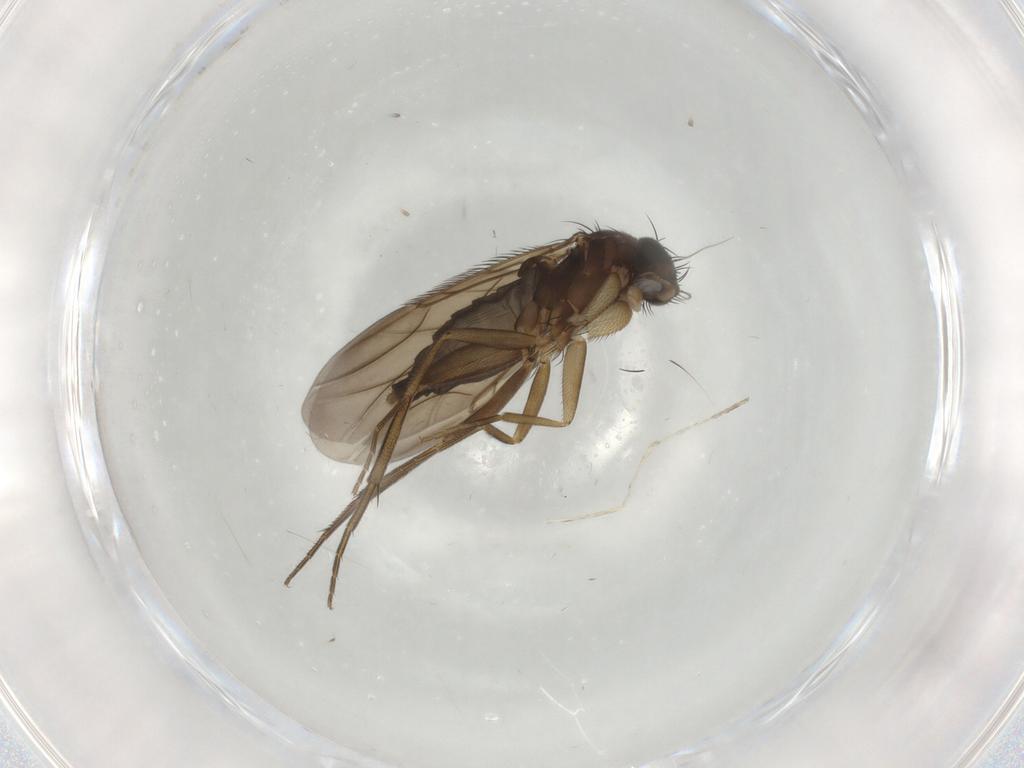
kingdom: Animalia
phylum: Arthropoda
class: Insecta
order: Diptera
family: Phoridae
